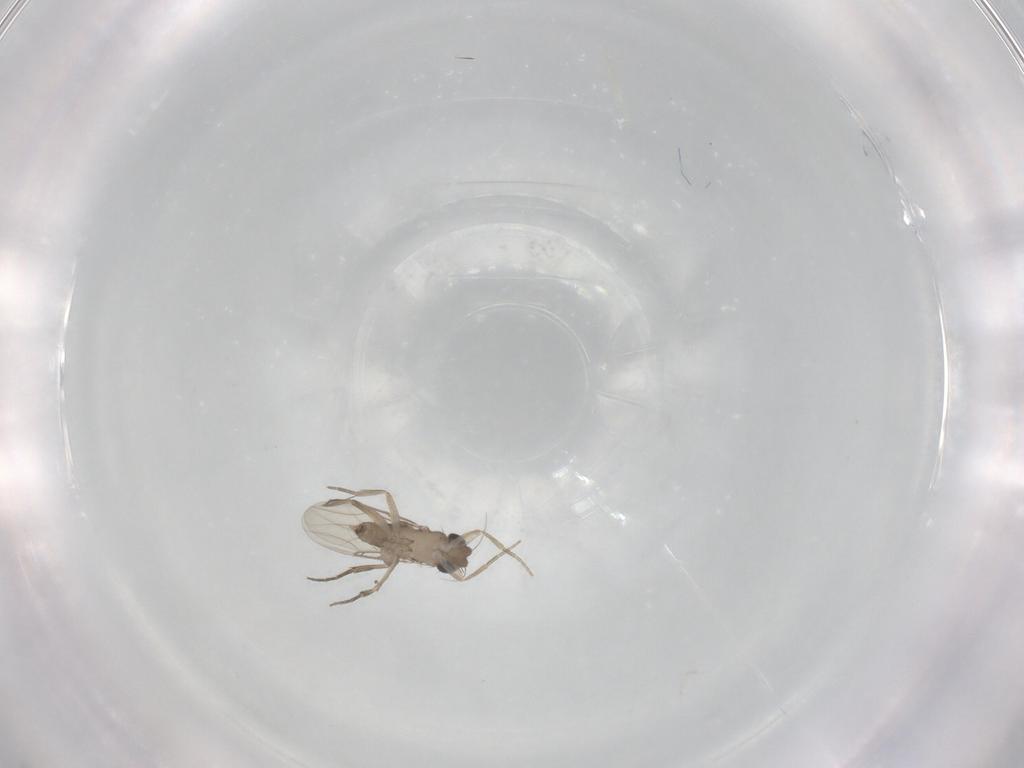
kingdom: Animalia
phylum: Arthropoda
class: Insecta
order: Diptera
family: Phoridae
